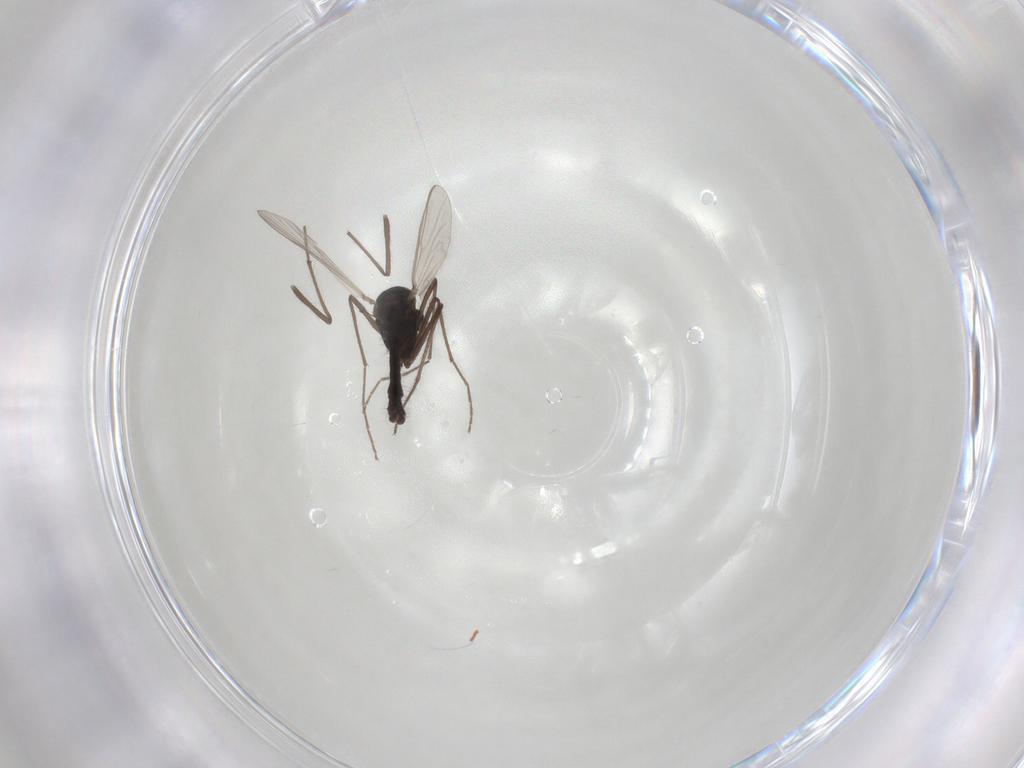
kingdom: Animalia
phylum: Arthropoda
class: Insecta
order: Diptera
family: Chironomidae
